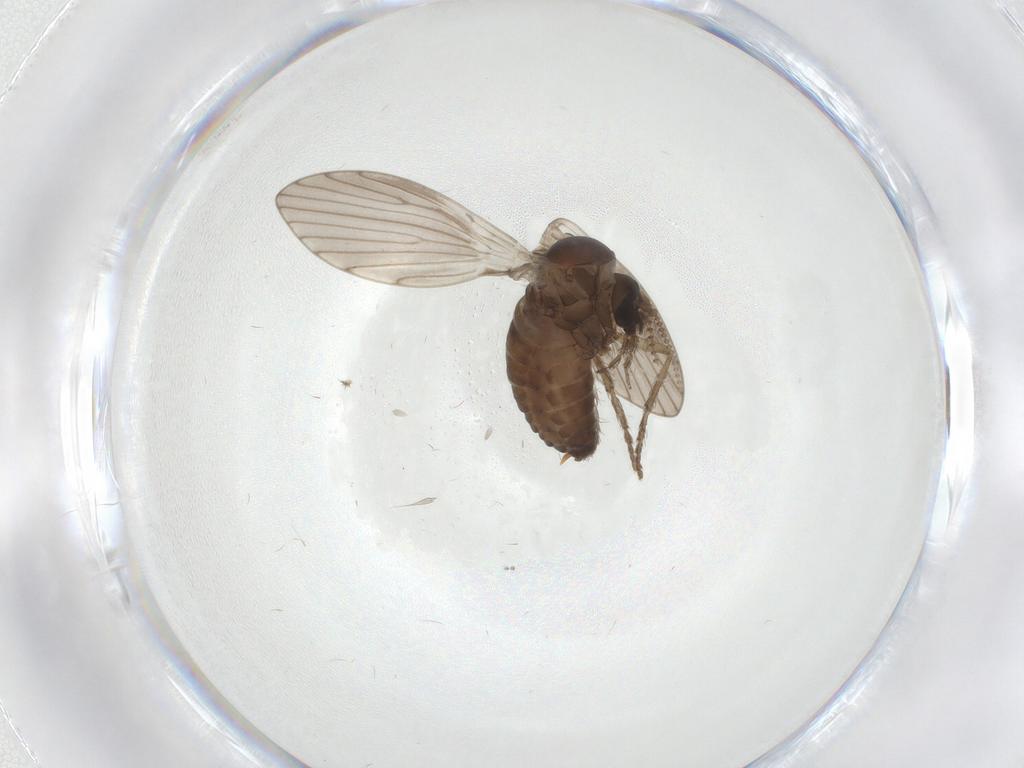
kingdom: Animalia
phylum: Arthropoda
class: Insecta
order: Diptera
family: Psychodidae
